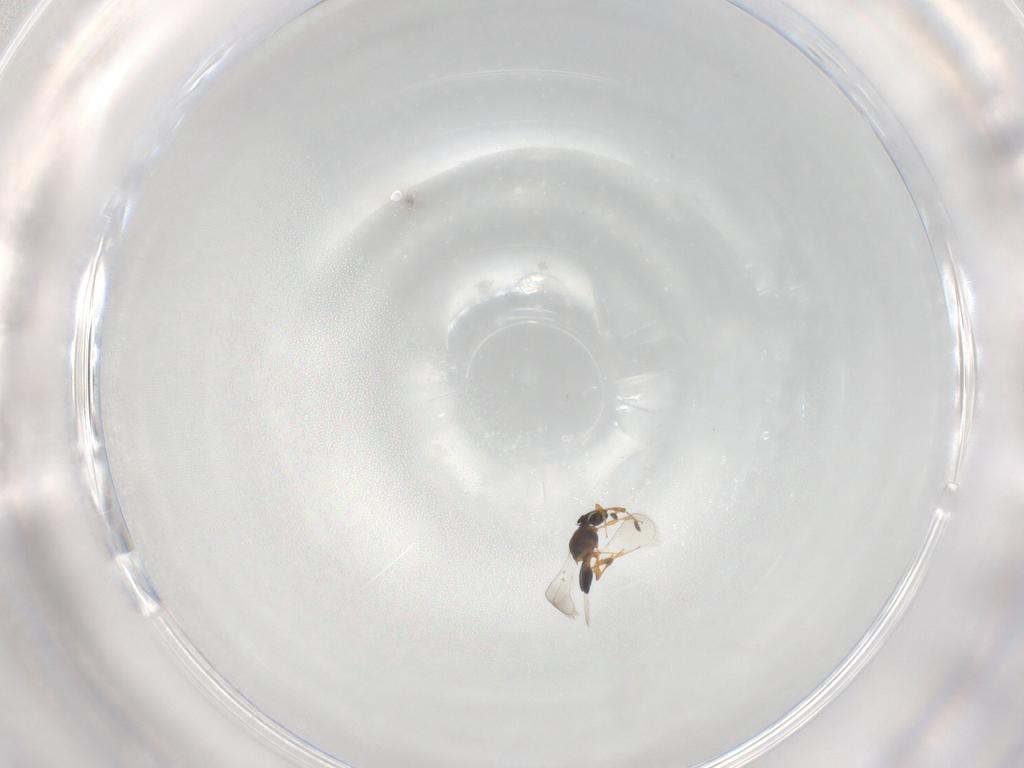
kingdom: Animalia
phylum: Arthropoda
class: Insecta
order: Hymenoptera
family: Platygastridae
